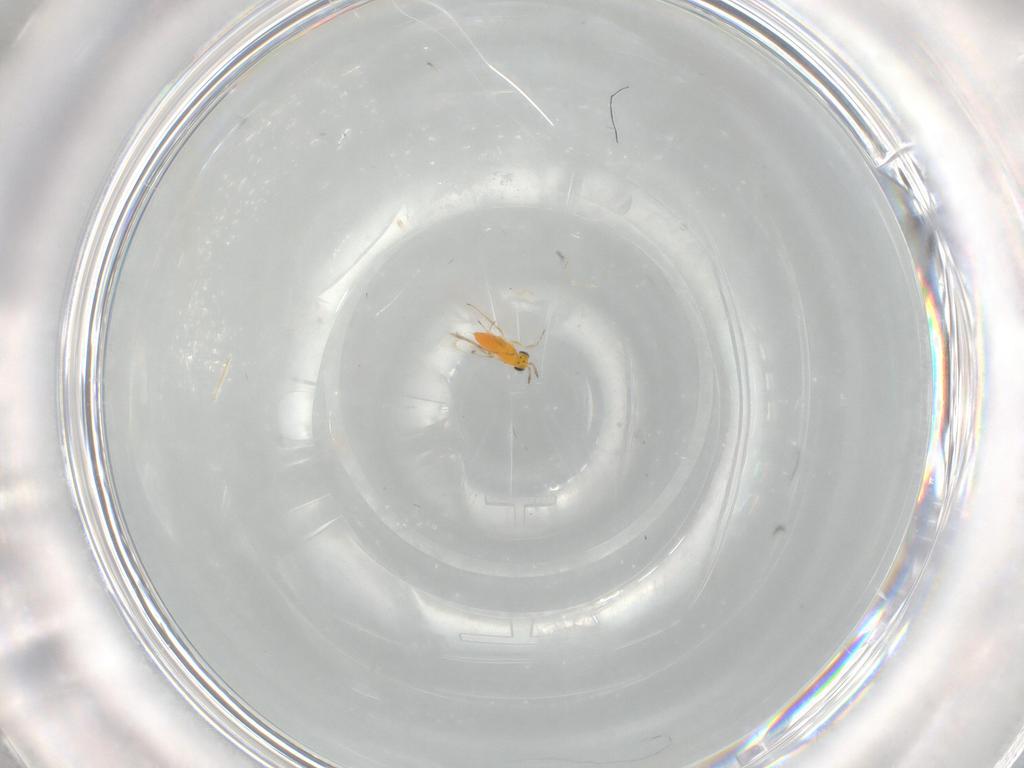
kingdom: Animalia
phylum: Arthropoda
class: Insecta
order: Hymenoptera
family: Trichogrammatidae
